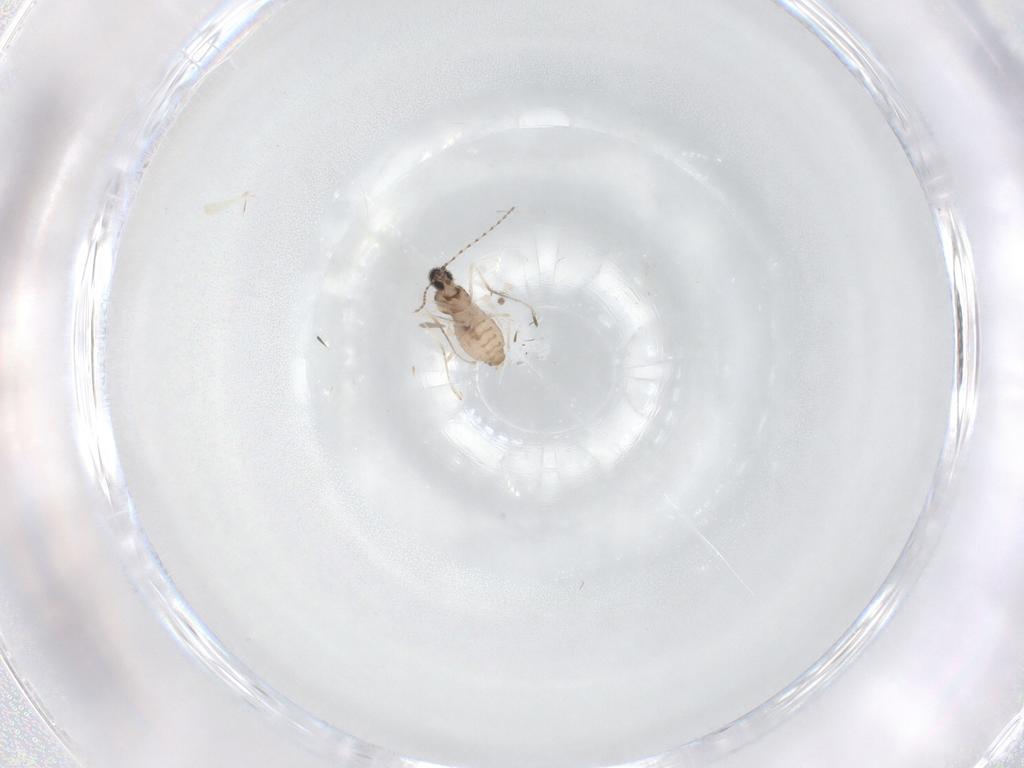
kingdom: Animalia
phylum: Arthropoda
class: Insecta
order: Diptera
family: Cecidomyiidae
